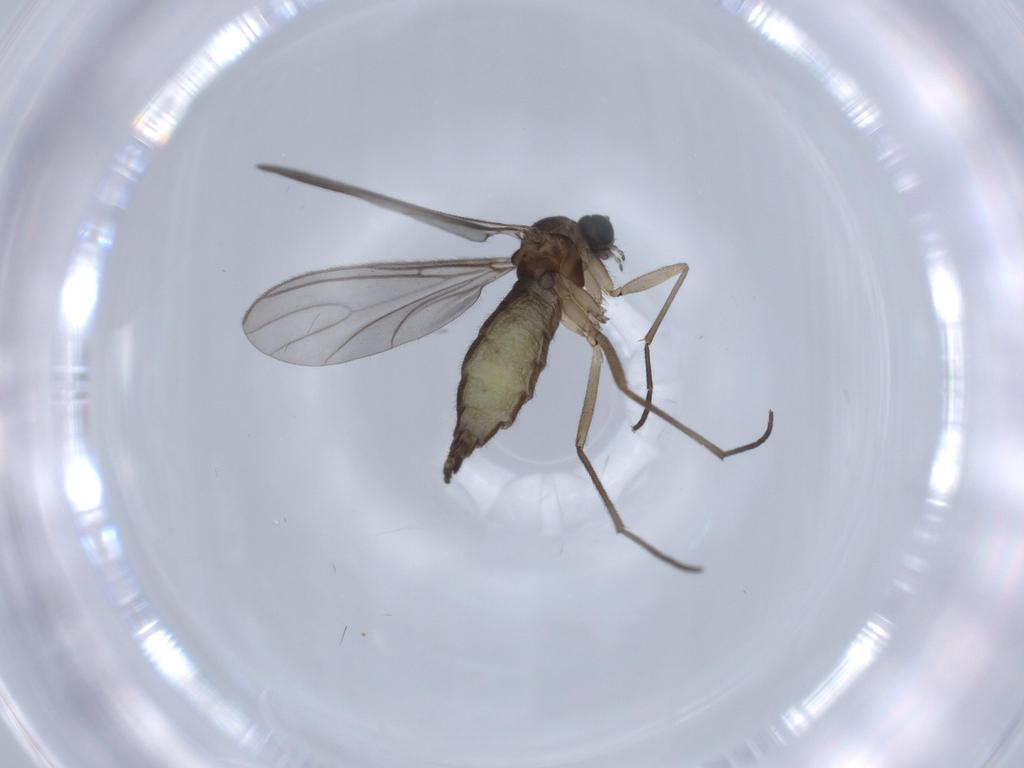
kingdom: Animalia
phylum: Arthropoda
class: Insecta
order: Diptera
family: Sciaridae
